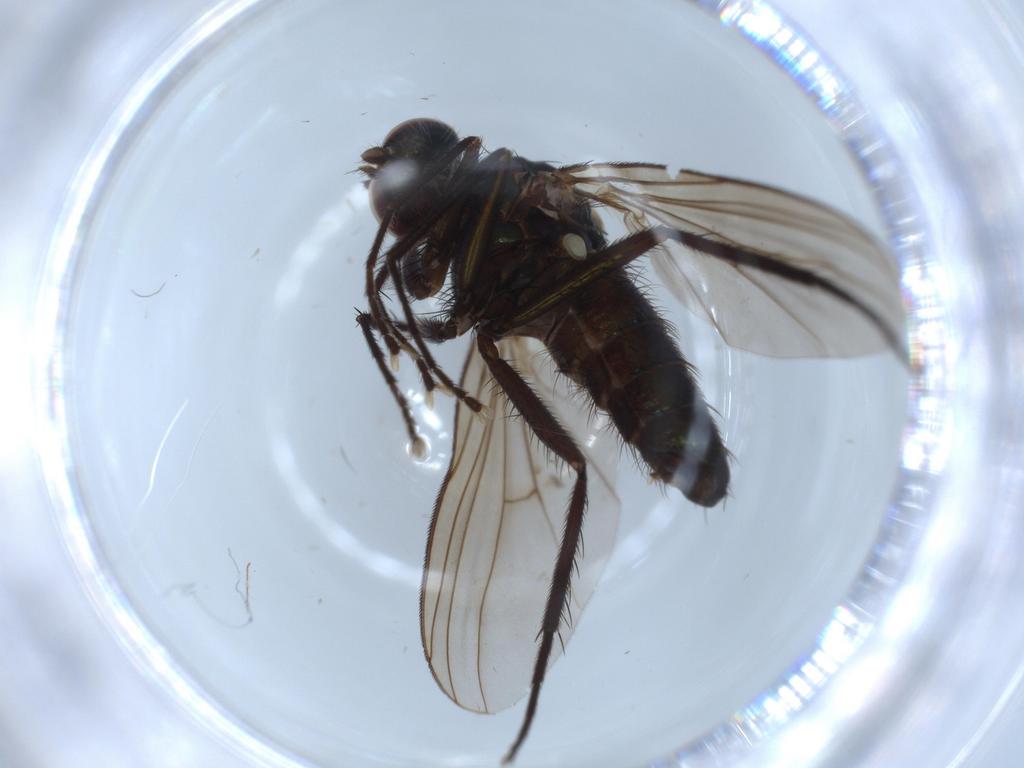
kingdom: Animalia
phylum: Arthropoda
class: Insecta
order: Diptera
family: Dolichopodidae
